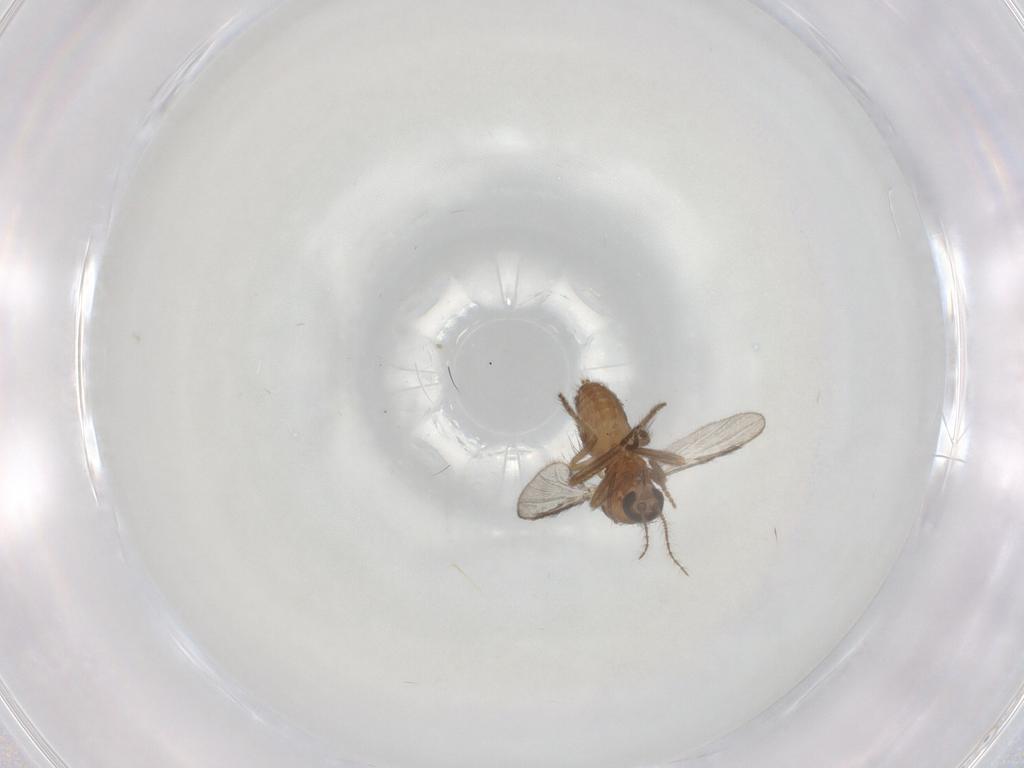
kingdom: Animalia
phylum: Arthropoda
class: Insecta
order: Diptera
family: Ceratopogonidae
